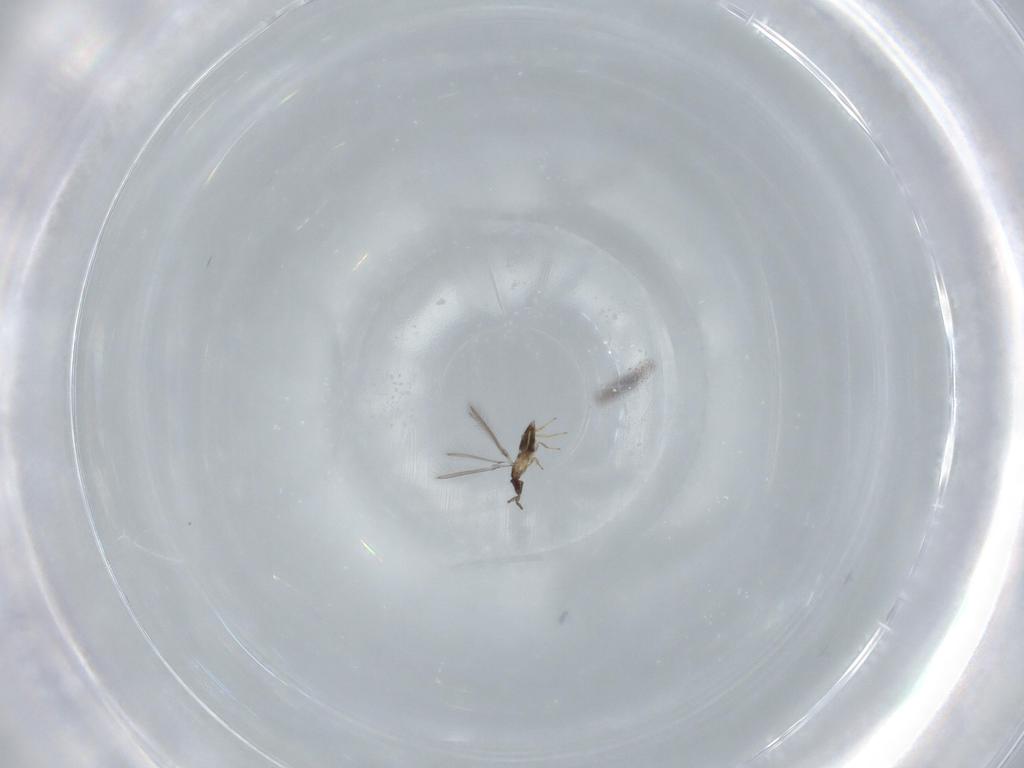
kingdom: Animalia
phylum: Arthropoda
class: Insecta
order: Hymenoptera
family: Mymaridae
